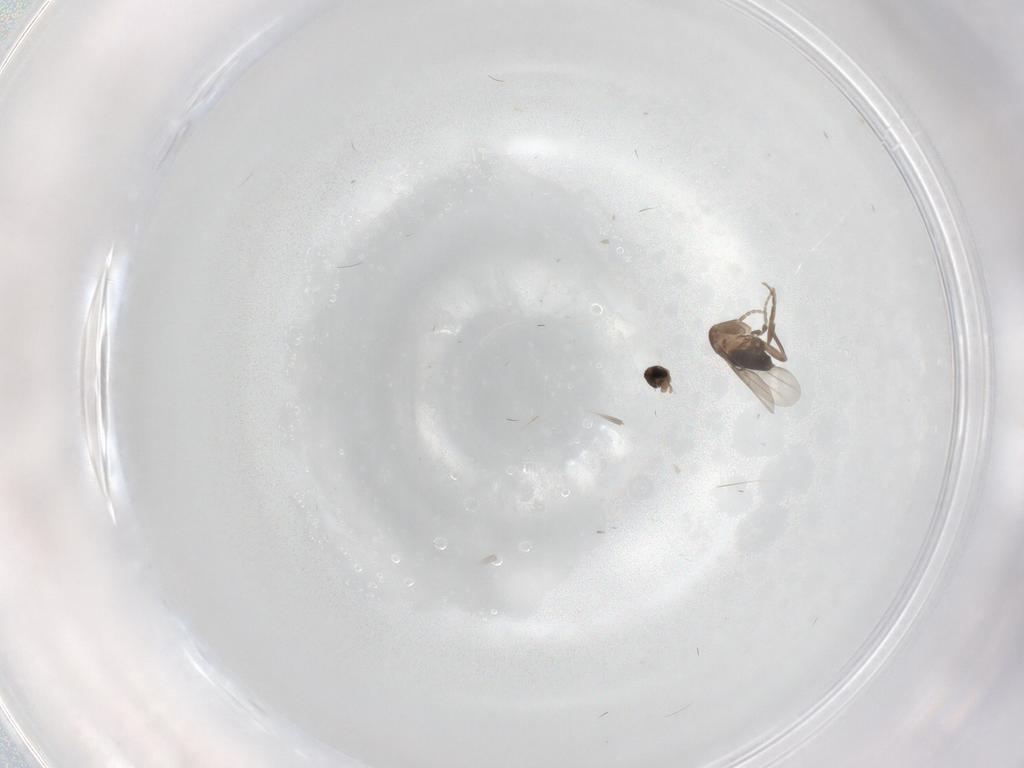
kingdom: Animalia
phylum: Arthropoda
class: Insecta
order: Diptera
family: Phoridae
